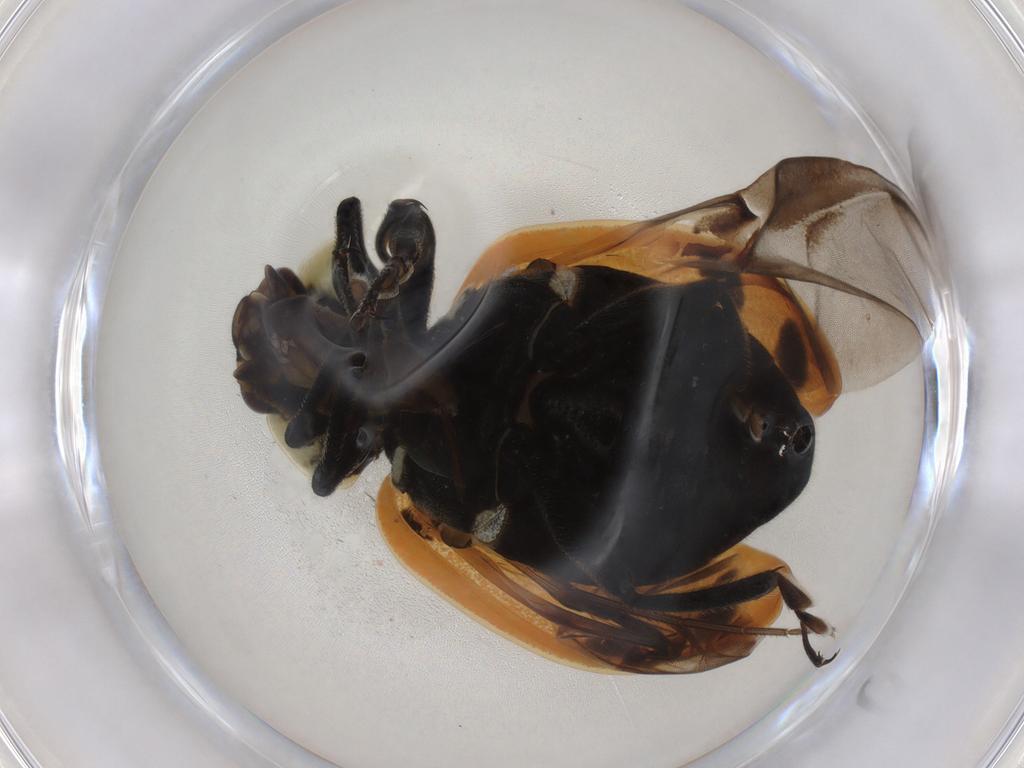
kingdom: Animalia
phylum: Arthropoda
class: Insecta
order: Coleoptera
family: Coccinellidae
